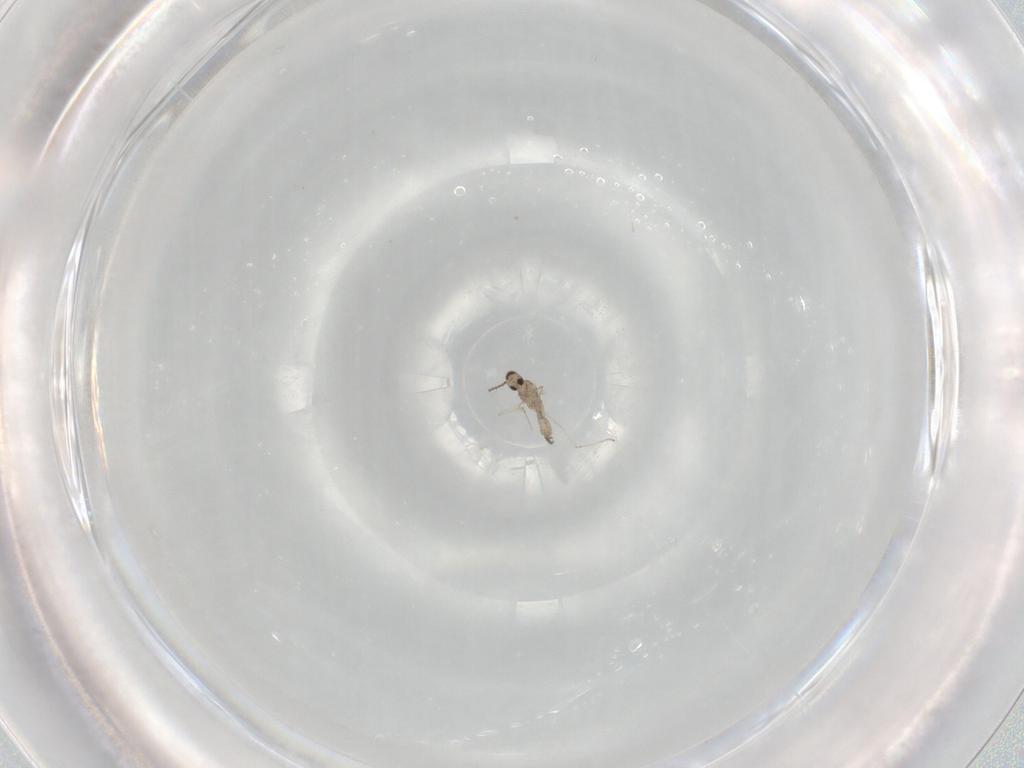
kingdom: Animalia
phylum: Arthropoda
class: Insecta
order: Diptera
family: Cecidomyiidae
